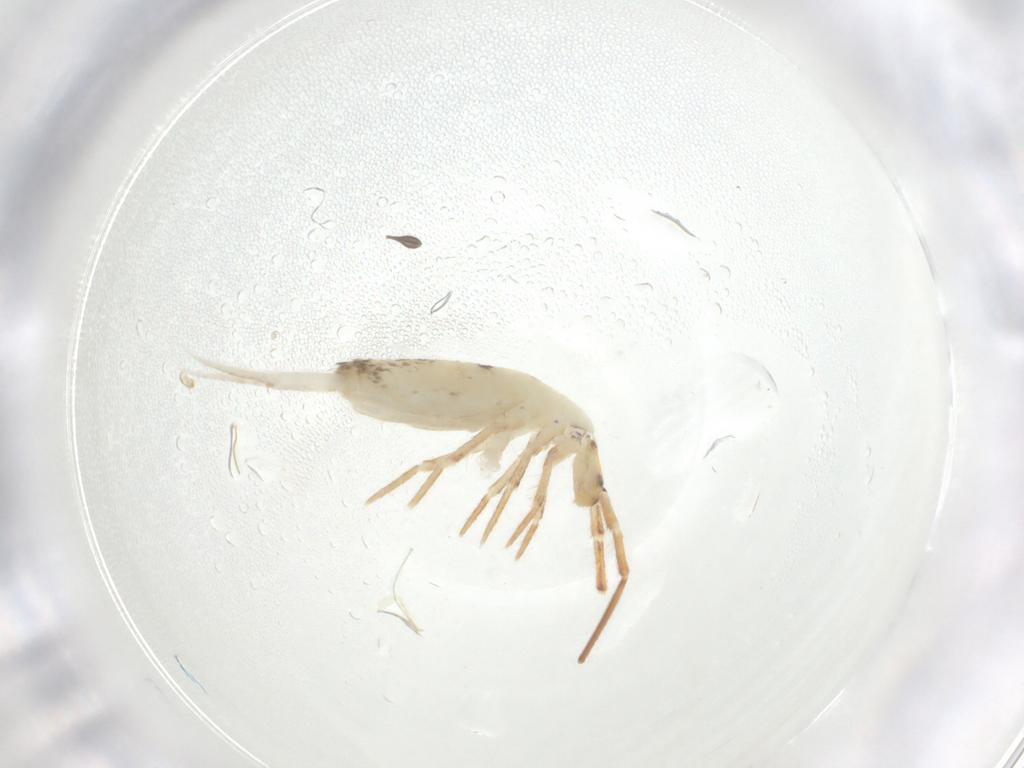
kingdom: Animalia
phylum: Arthropoda
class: Collembola
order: Entomobryomorpha
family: Entomobryidae
